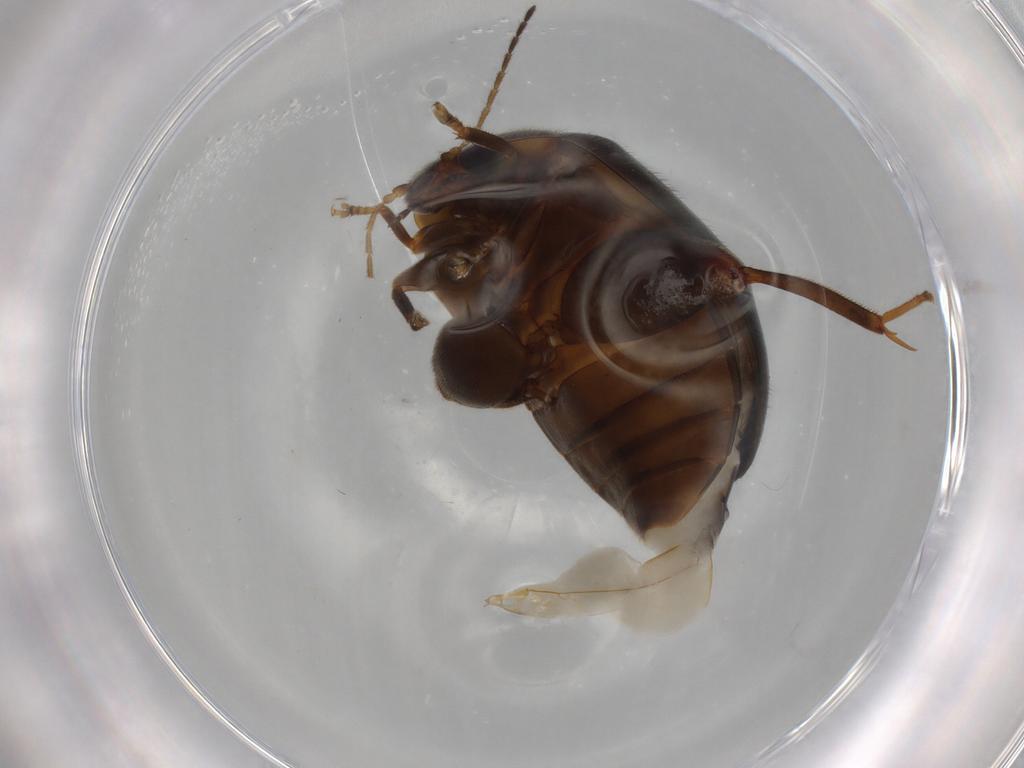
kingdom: Animalia
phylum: Arthropoda
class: Insecta
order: Coleoptera
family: Scirtidae
